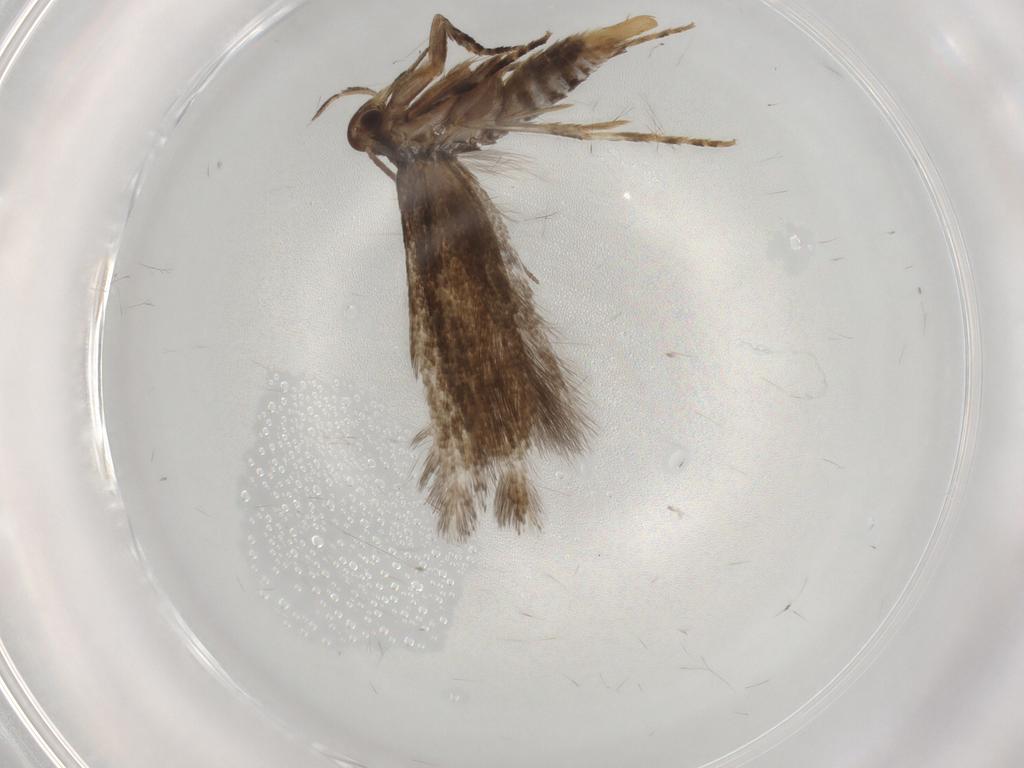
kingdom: Animalia
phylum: Arthropoda
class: Insecta
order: Lepidoptera
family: Elachistidae
